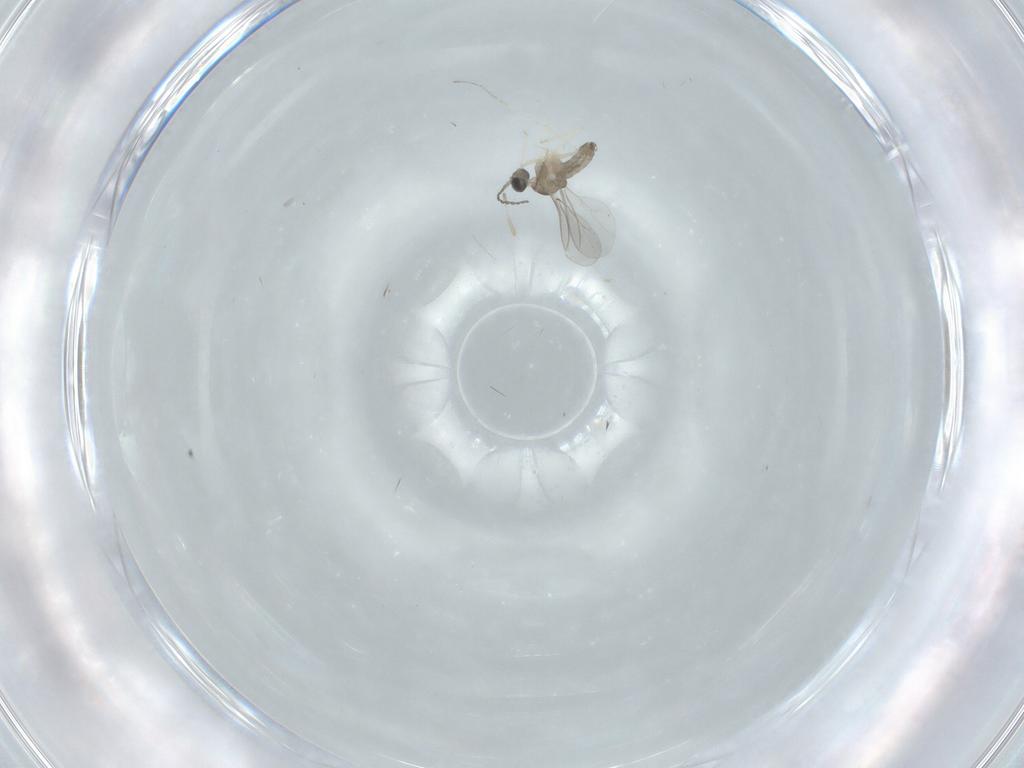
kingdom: Animalia
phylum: Arthropoda
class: Insecta
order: Diptera
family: Cecidomyiidae
